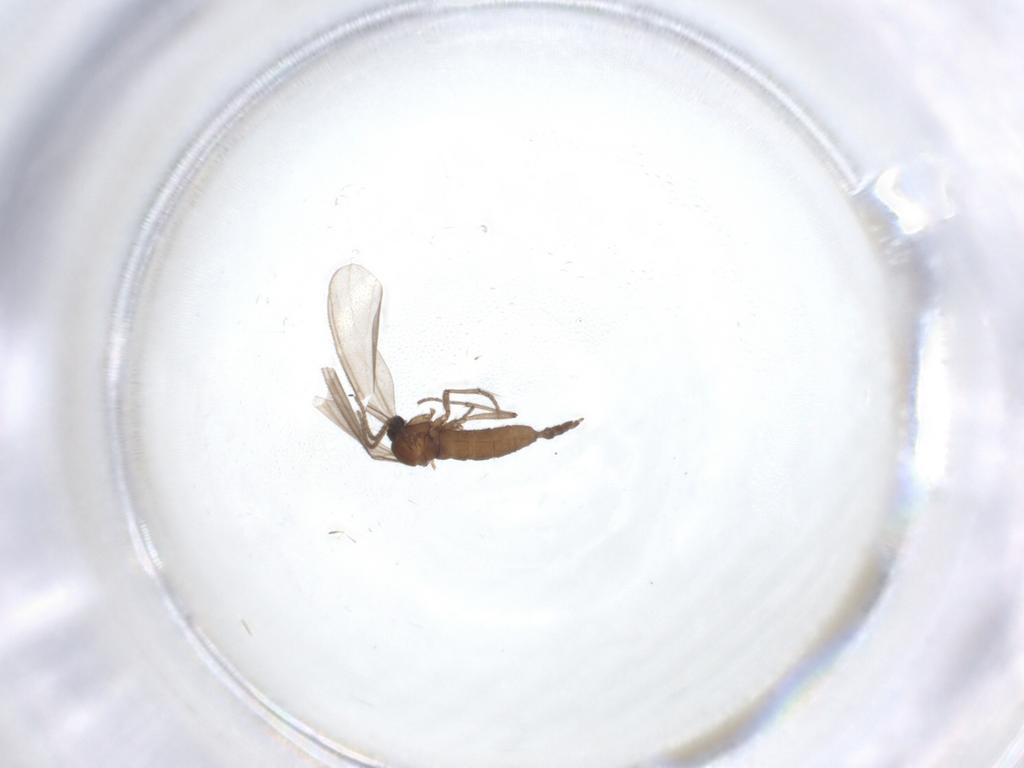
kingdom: Animalia
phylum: Arthropoda
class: Insecta
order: Diptera
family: Sciaridae
